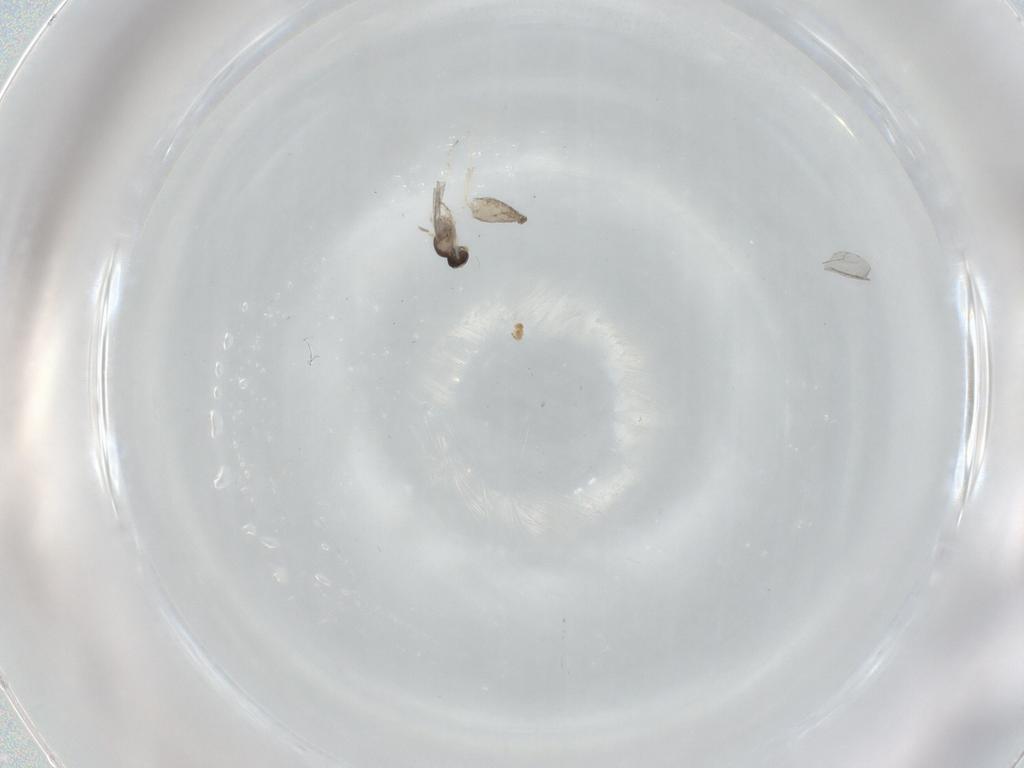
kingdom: Animalia
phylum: Arthropoda
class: Insecta
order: Diptera
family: Cecidomyiidae
